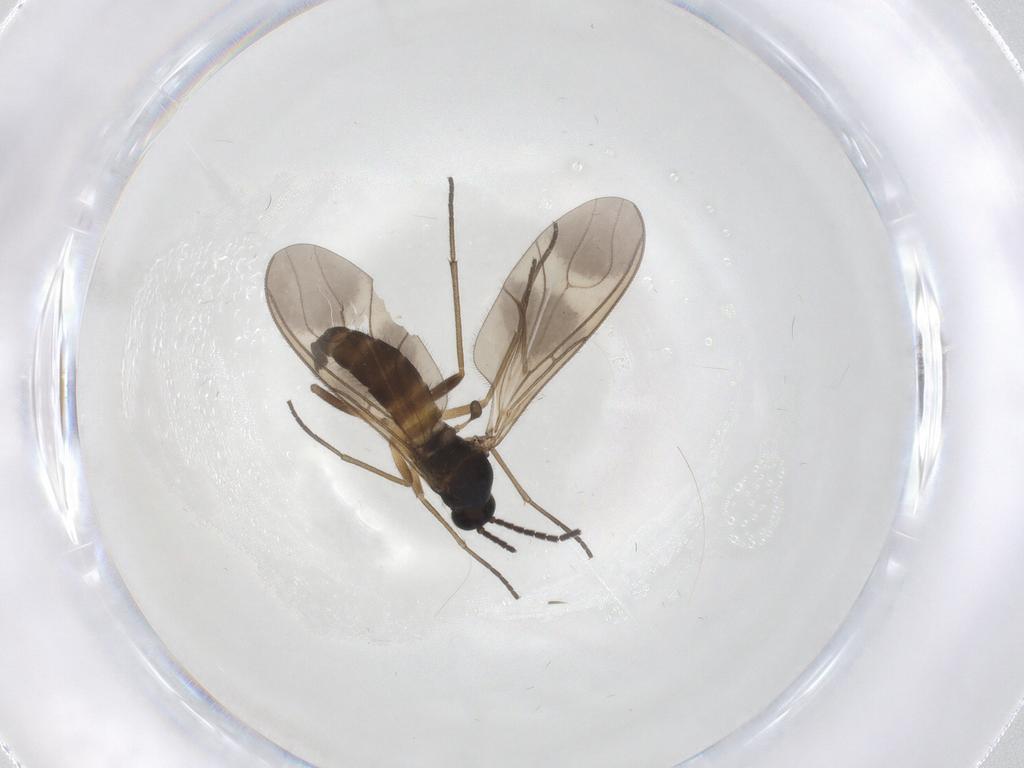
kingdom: Animalia
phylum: Arthropoda
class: Insecta
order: Diptera
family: Sciaridae
